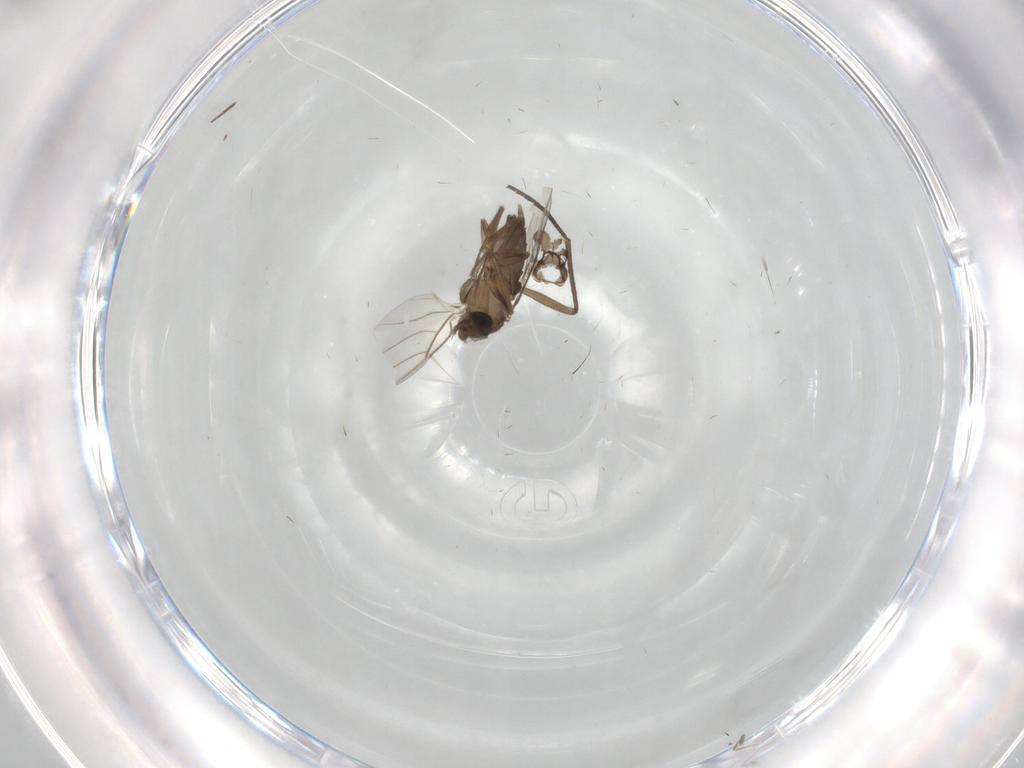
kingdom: Animalia
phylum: Arthropoda
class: Insecta
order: Diptera
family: Phoridae
